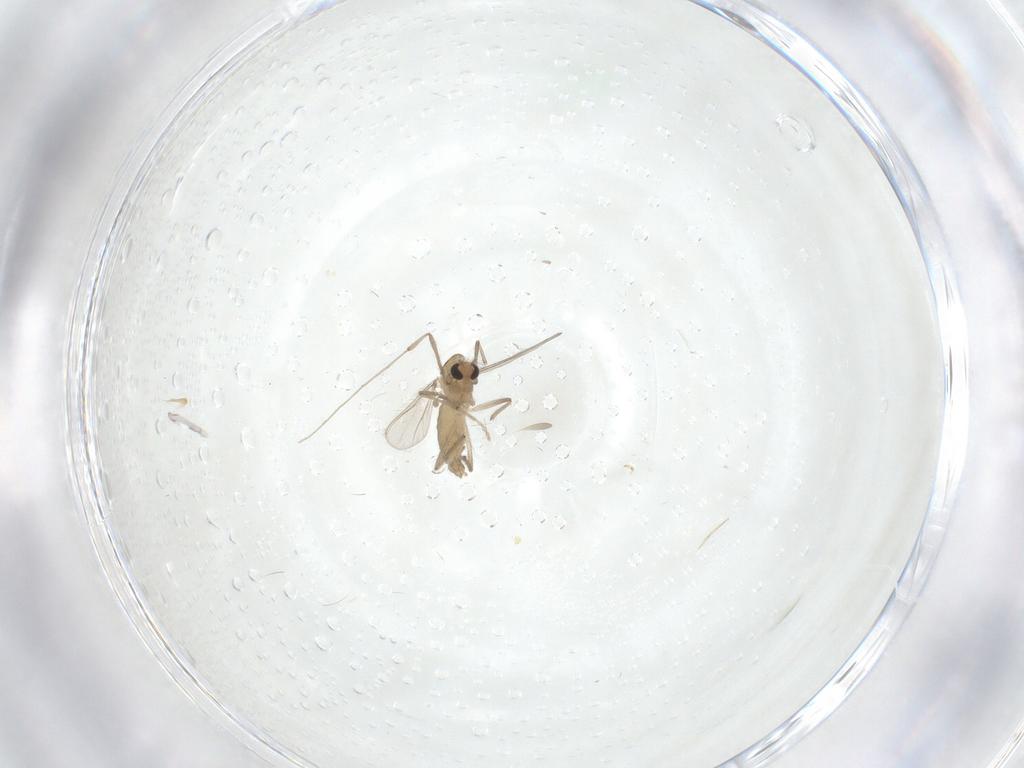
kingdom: Animalia
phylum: Arthropoda
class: Insecta
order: Diptera
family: Chironomidae
